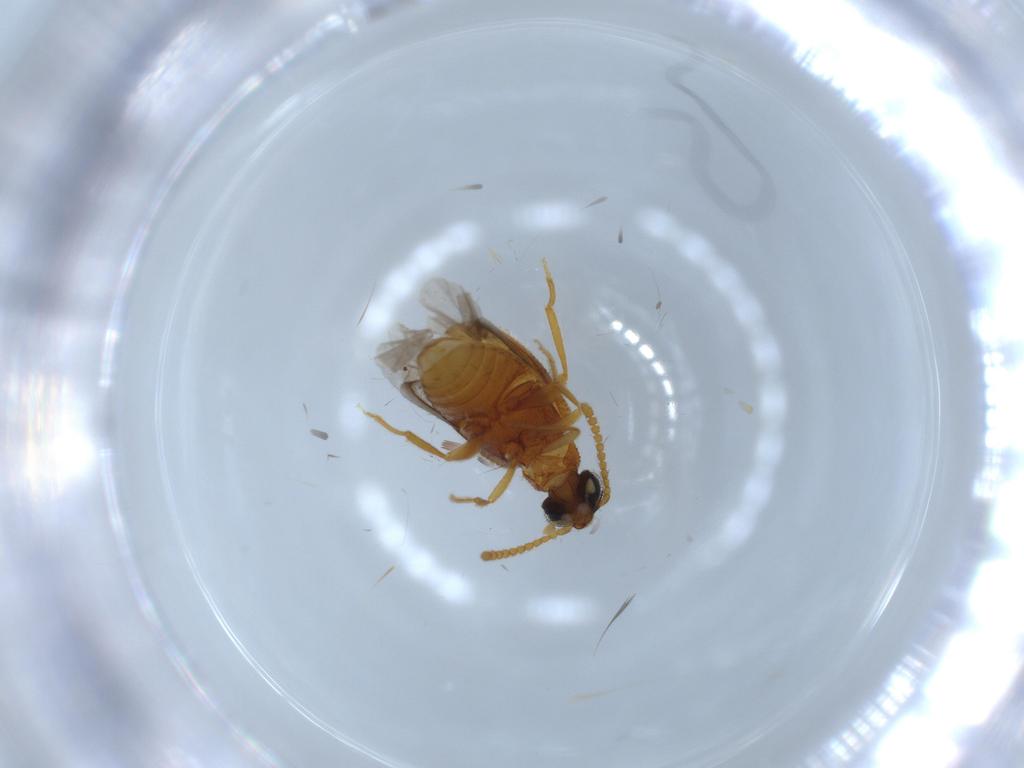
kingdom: Animalia
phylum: Arthropoda
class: Insecta
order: Coleoptera
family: Aderidae
